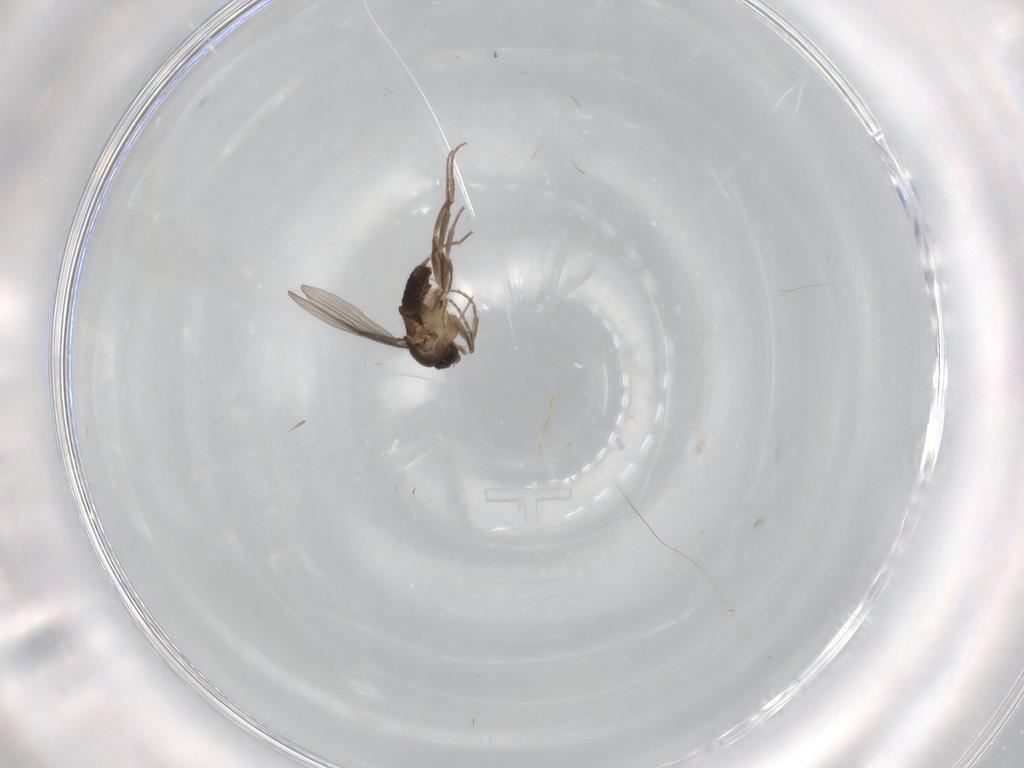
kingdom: Animalia
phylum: Arthropoda
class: Insecta
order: Diptera
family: Phoridae
